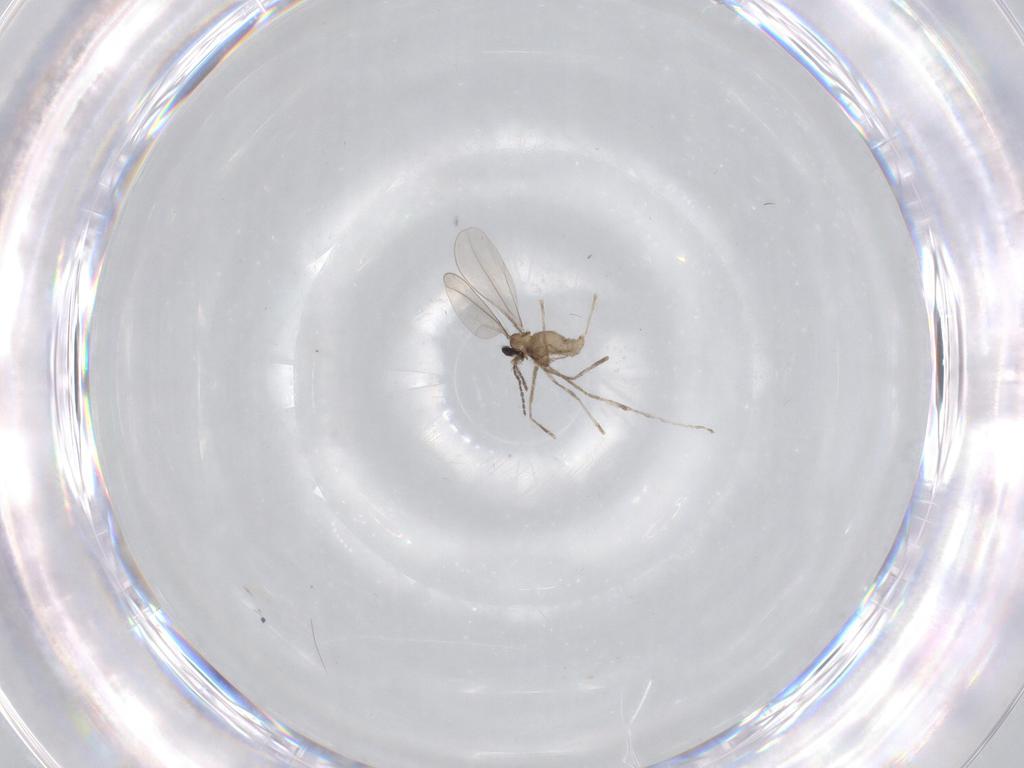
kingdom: Animalia
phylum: Arthropoda
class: Insecta
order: Diptera
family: Cecidomyiidae
